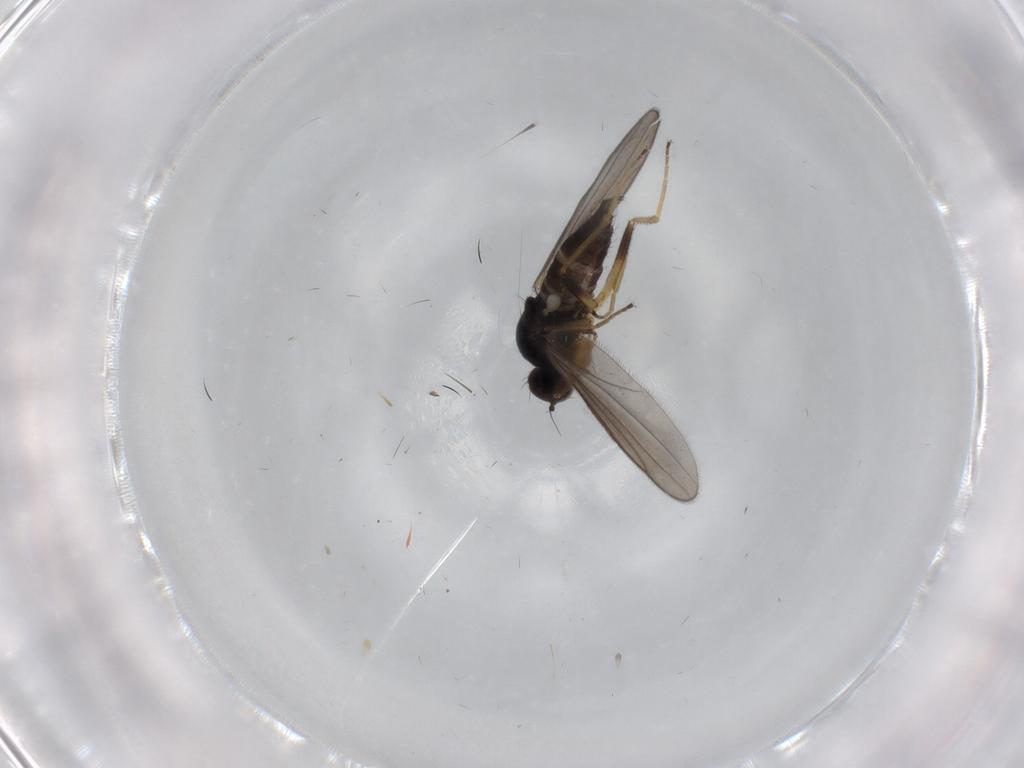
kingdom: Animalia
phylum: Arthropoda
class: Insecta
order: Diptera
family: Hybotidae
